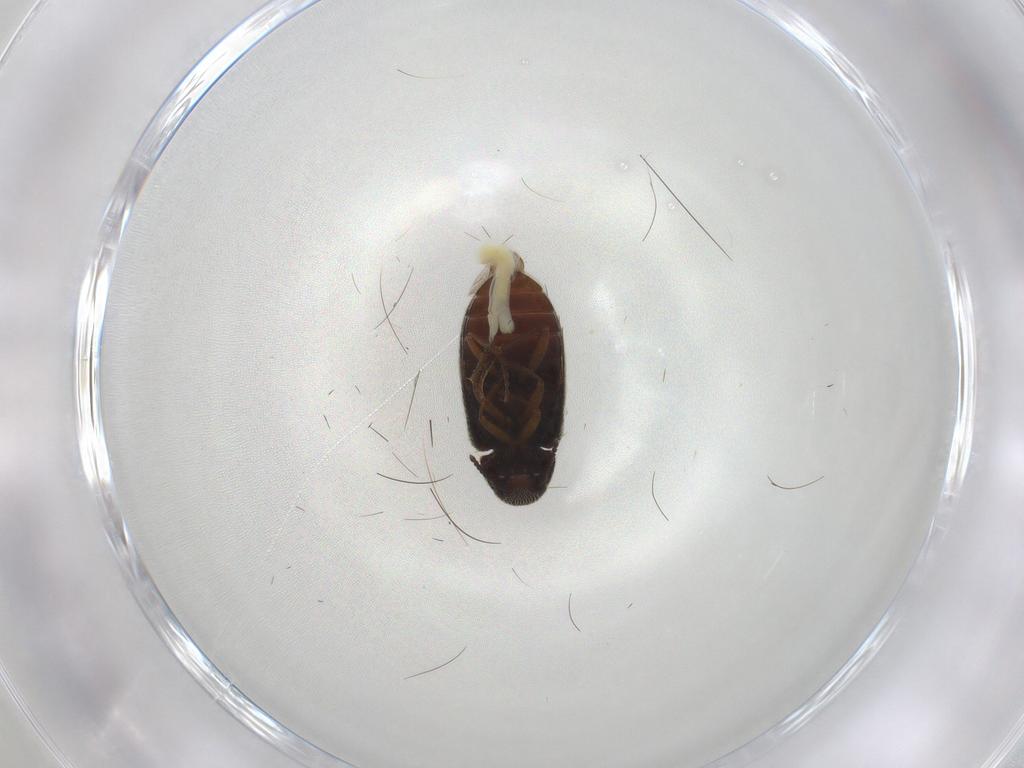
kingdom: Animalia
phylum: Arthropoda
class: Insecta
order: Coleoptera
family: Rhadalidae
